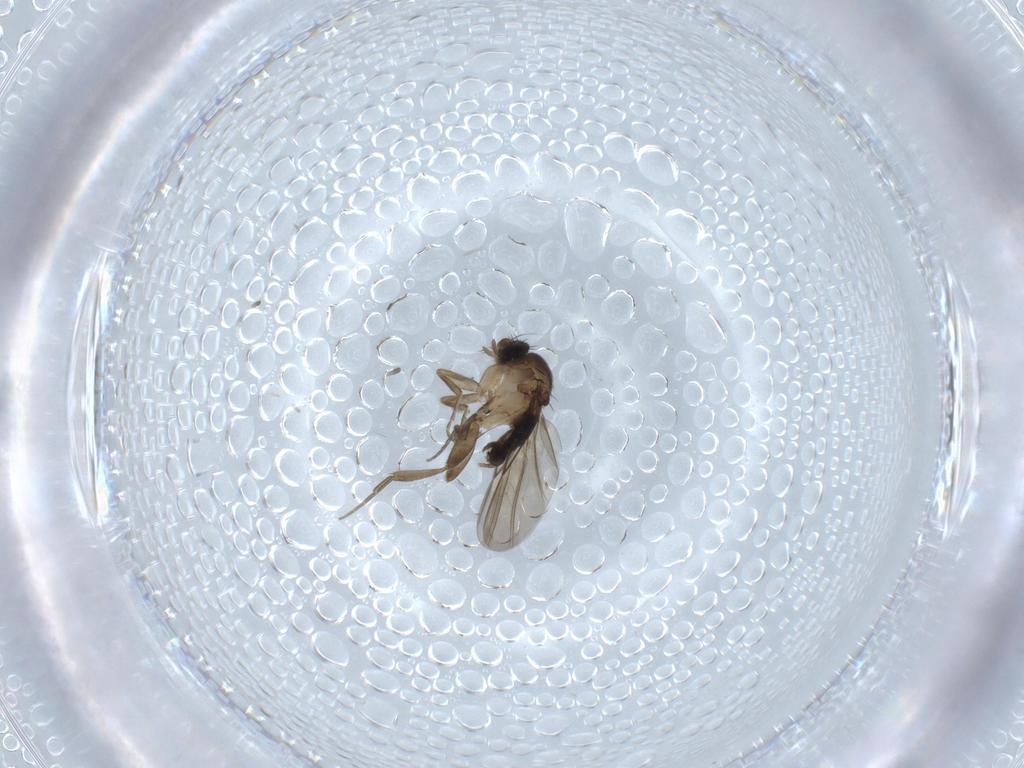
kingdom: Animalia
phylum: Arthropoda
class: Insecta
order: Diptera
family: Phoridae
